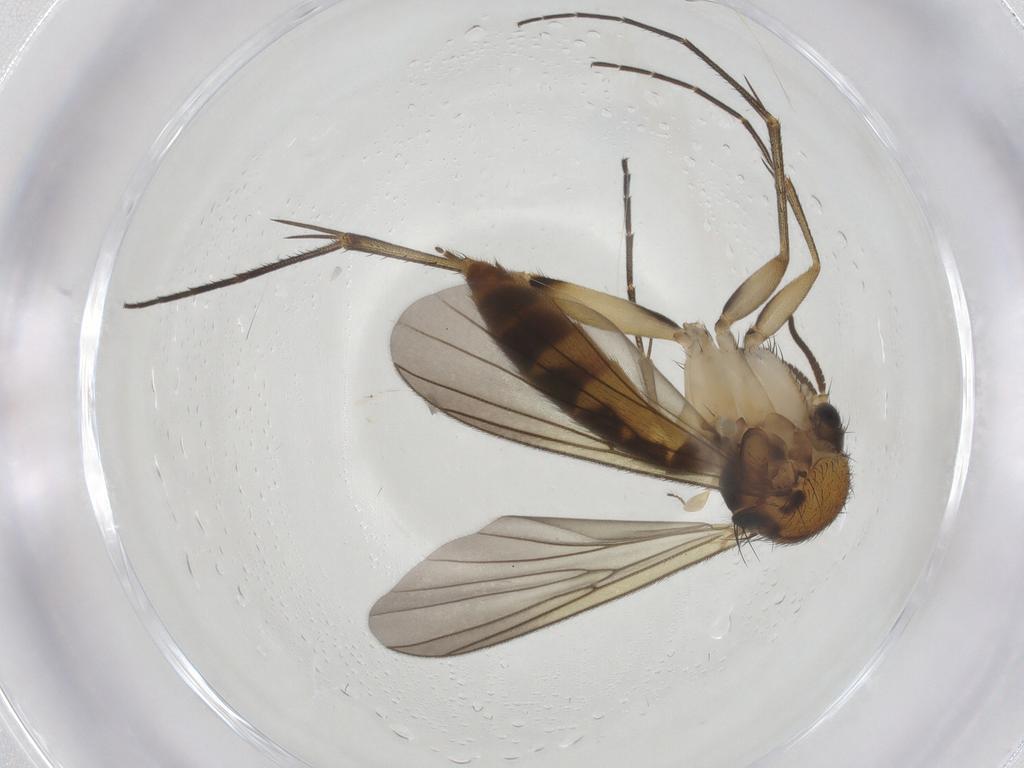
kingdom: Animalia
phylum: Arthropoda
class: Insecta
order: Diptera
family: Mycetophilidae
